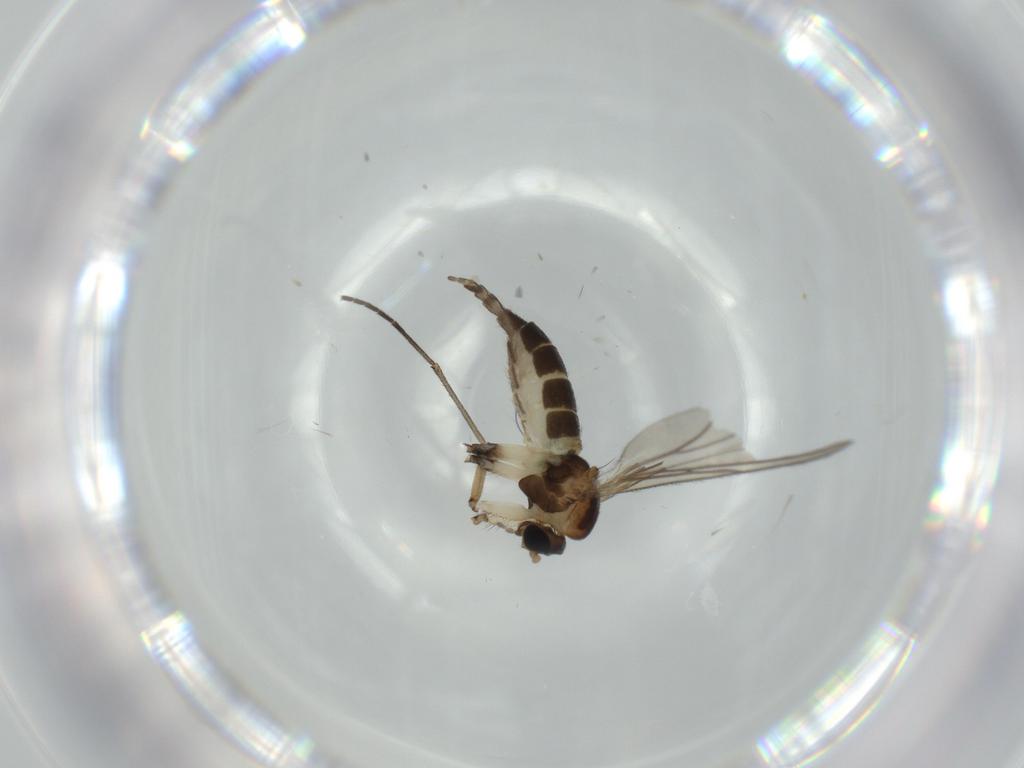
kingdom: Animalia
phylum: Arthropoda
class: Insecta
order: Diptera
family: Sciaridae
